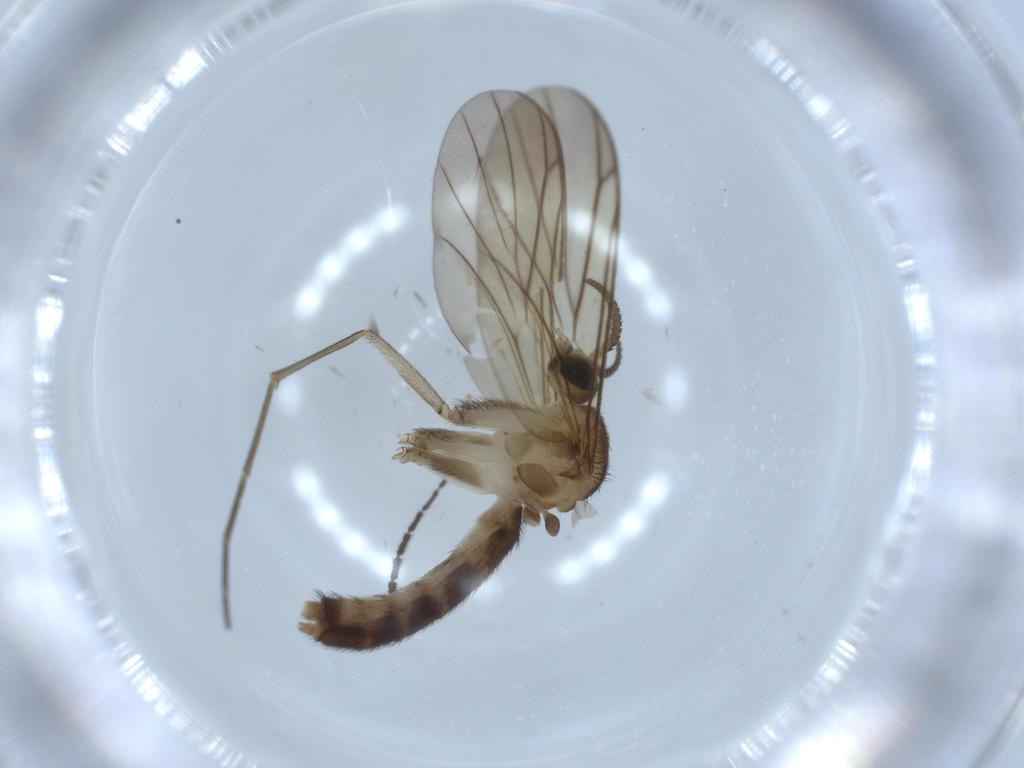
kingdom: Animalia
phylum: Arthropoda
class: Insecta
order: Diptera
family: Mycetophilidae
